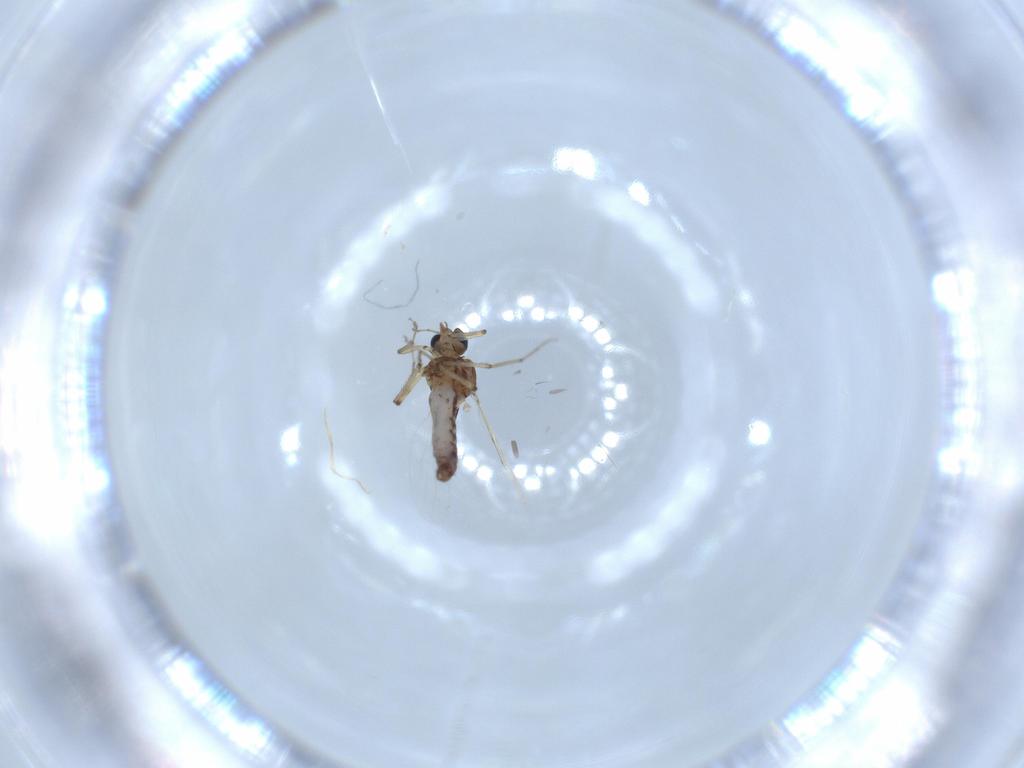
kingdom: Animalia
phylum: Arthropoda
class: Insecta
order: Diptera
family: Ceratopogonidae
